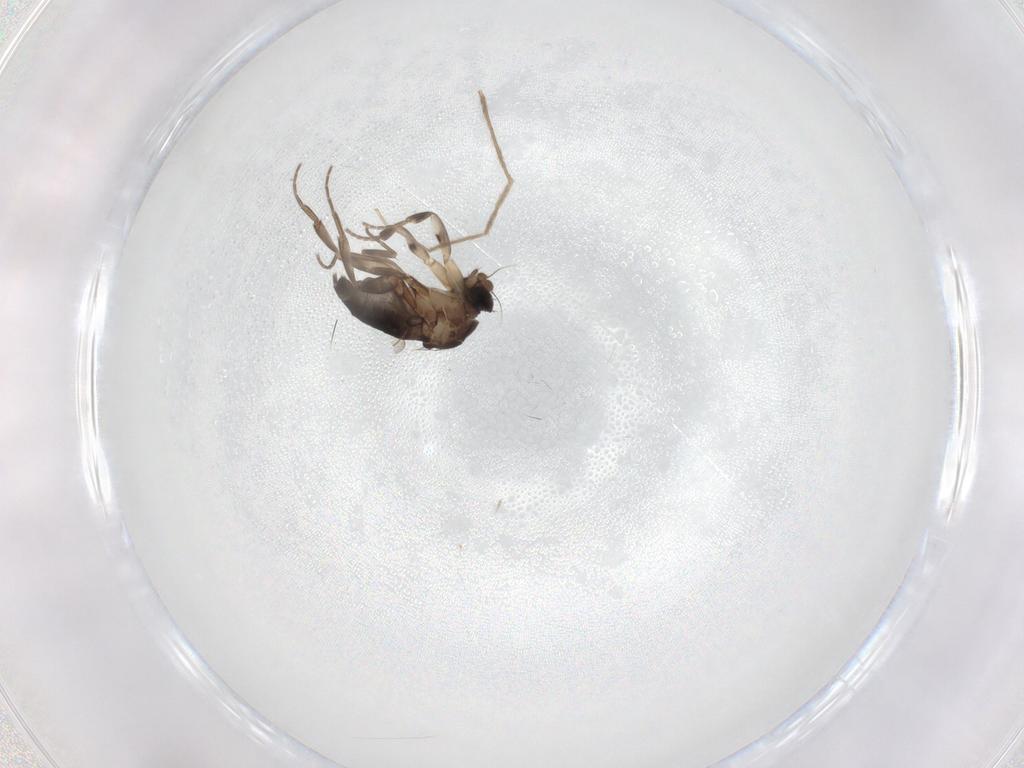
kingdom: Animalia
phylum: Arthropoda
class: Insecta
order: Diptera
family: Phoridae
